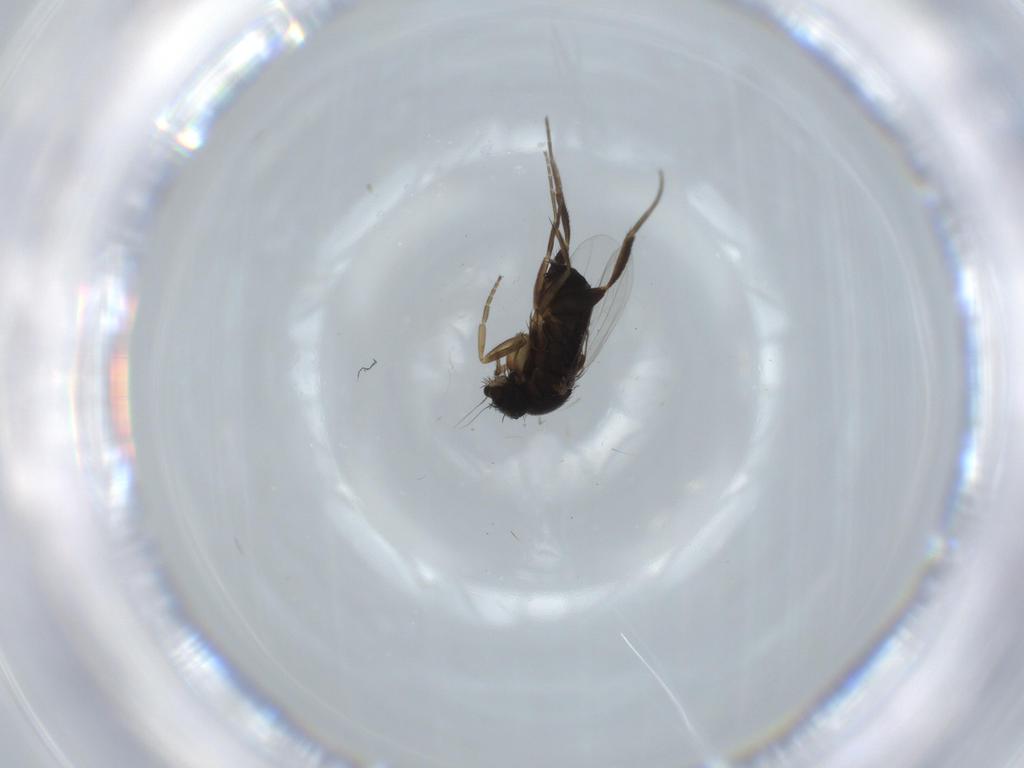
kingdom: Animalia
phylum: Arthropoda
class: Insecta
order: Diptera
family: Phoridae
